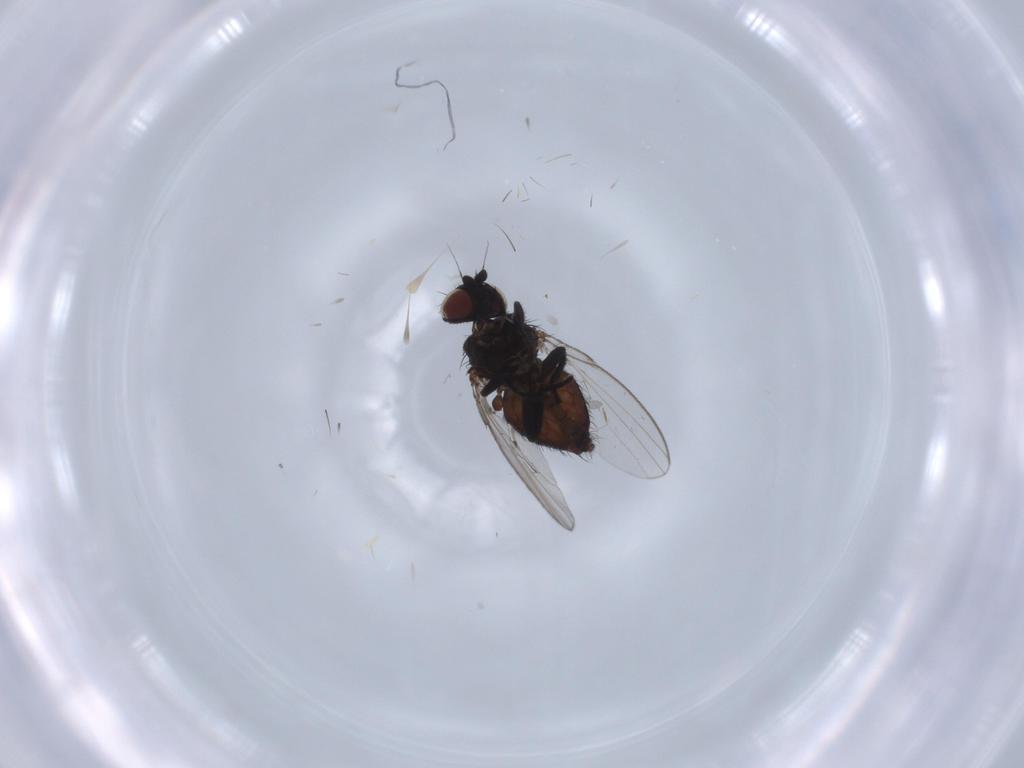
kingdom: Animalia
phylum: Arthropoda
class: Insecta
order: Diptera
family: Milichiidae
